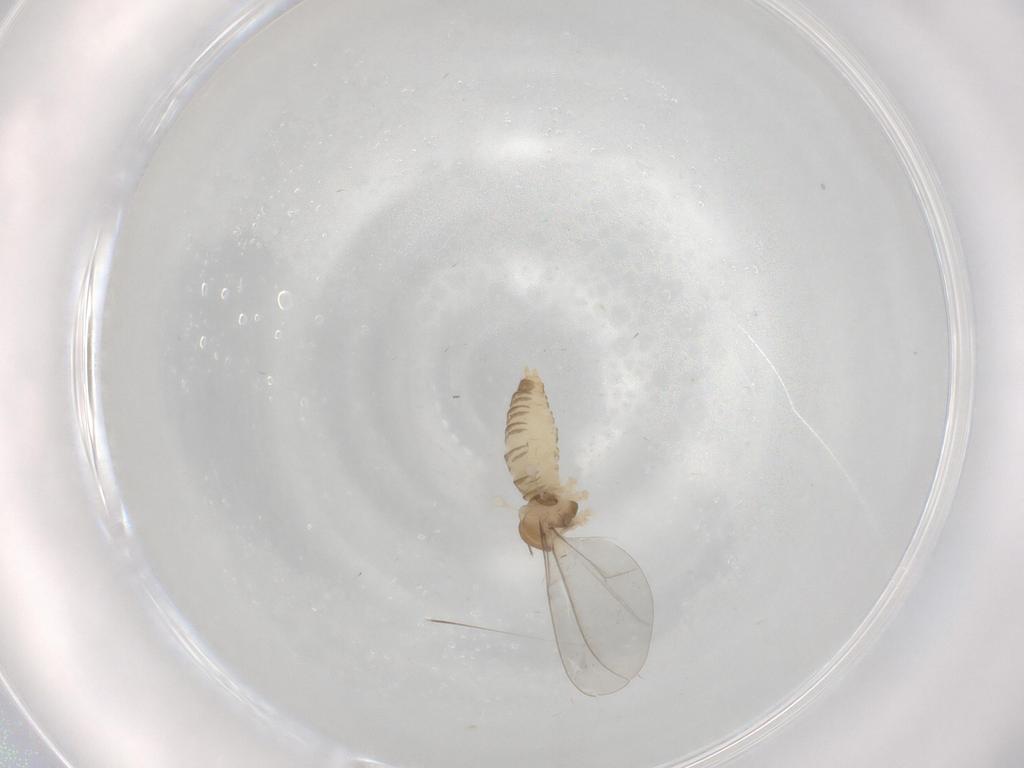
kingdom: Animalia
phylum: Arthropoda
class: Insecta
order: Diptera
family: Cecidomyiidae
